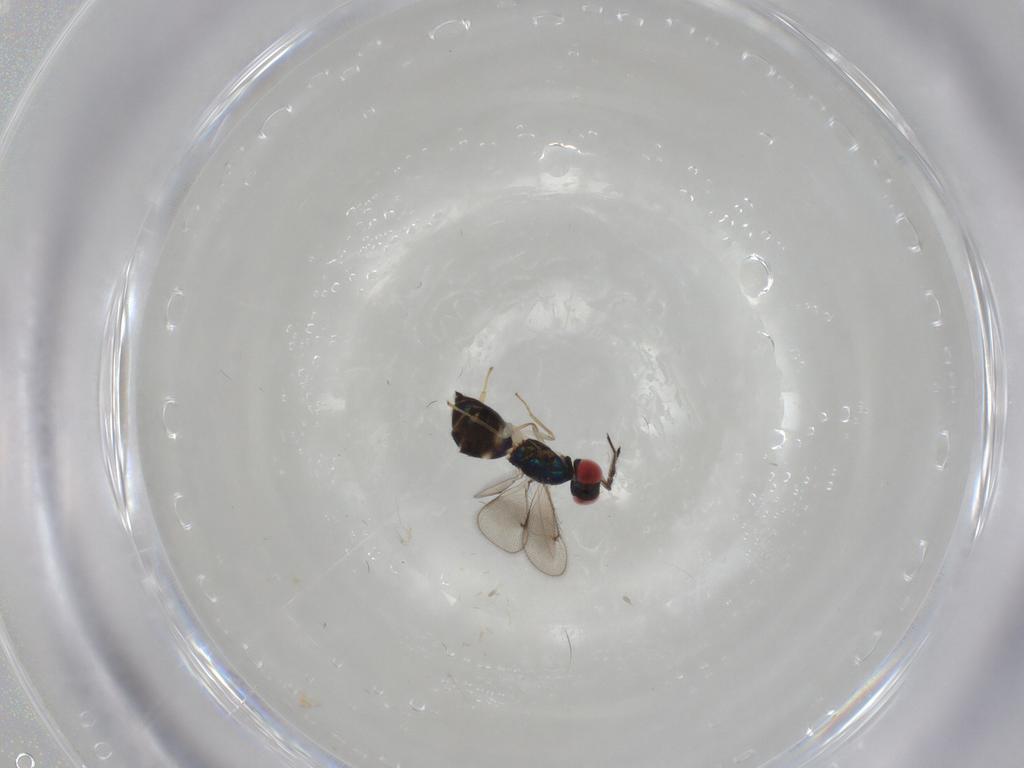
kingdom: Animalia
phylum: Arthropoda
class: Insecta
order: Hymenoptera
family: Eulophidae
